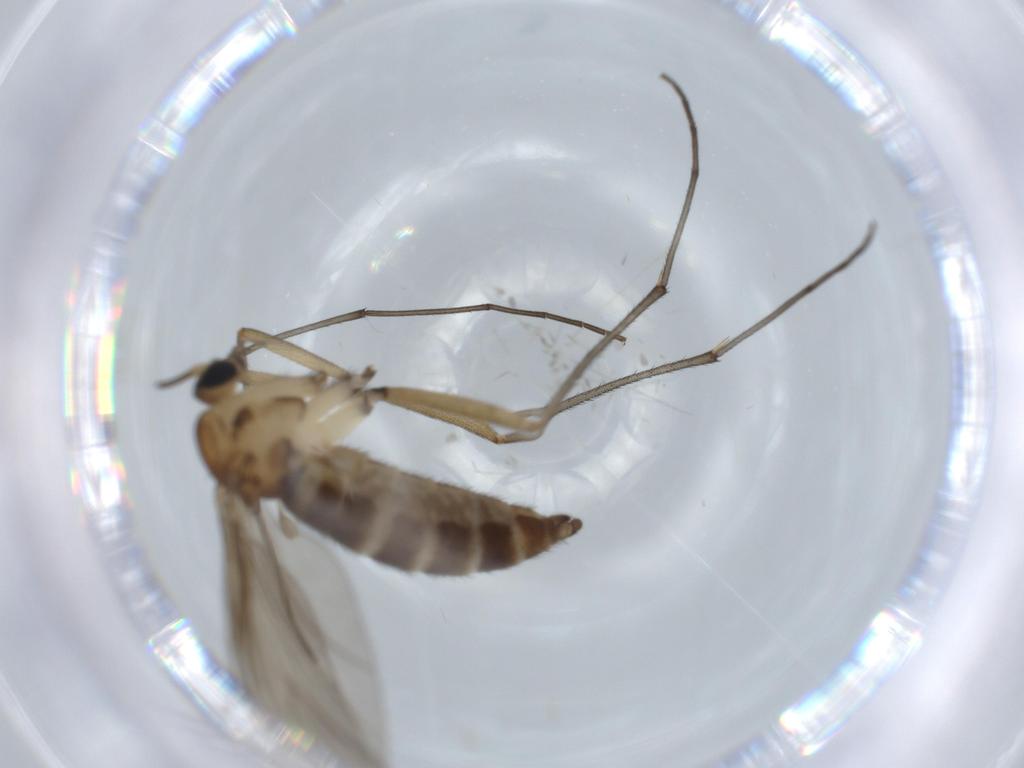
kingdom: Animalia
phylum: Arthropoda
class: Insecta
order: Diptera
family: Sciaridae
